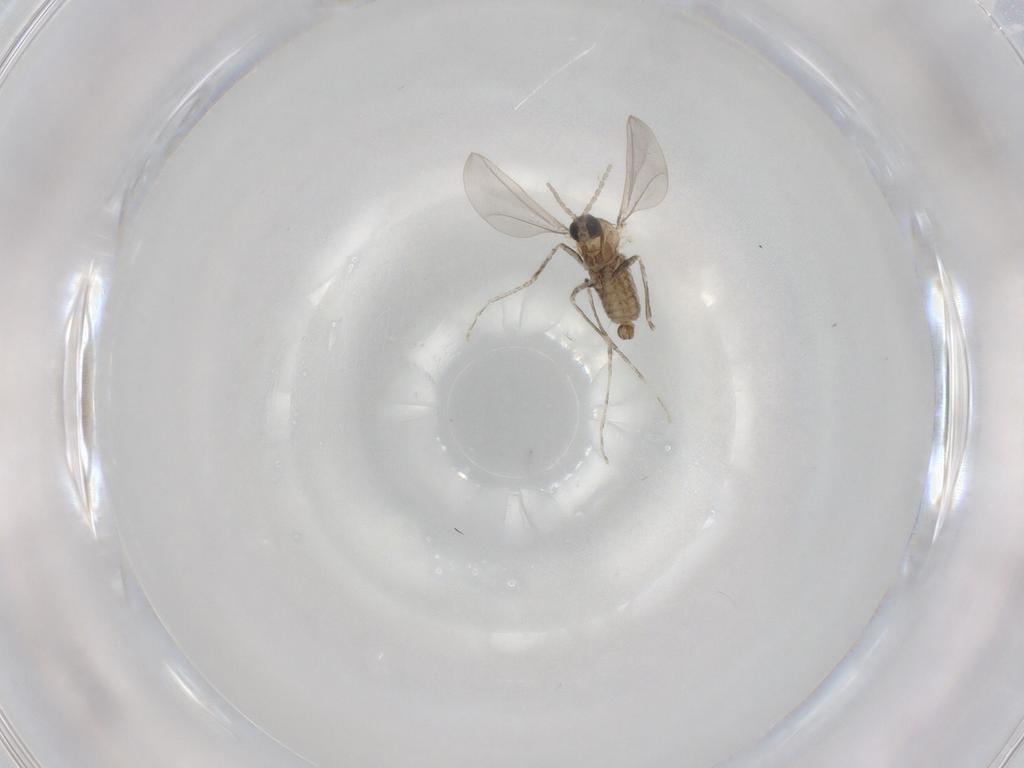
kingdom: Animalia
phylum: Arthropoda
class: Insecta
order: Diptera
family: Cecidomyiidae
